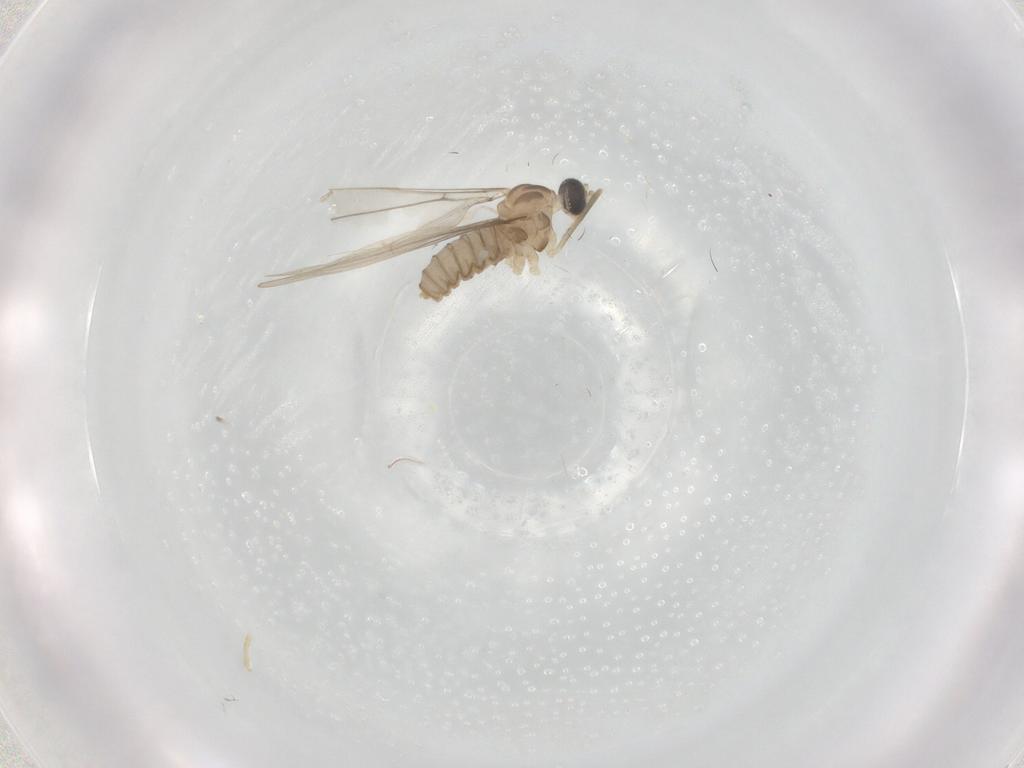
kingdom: Animalia
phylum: Arthropoda
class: Insecta
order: Diptera
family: Cecidomyiidae
